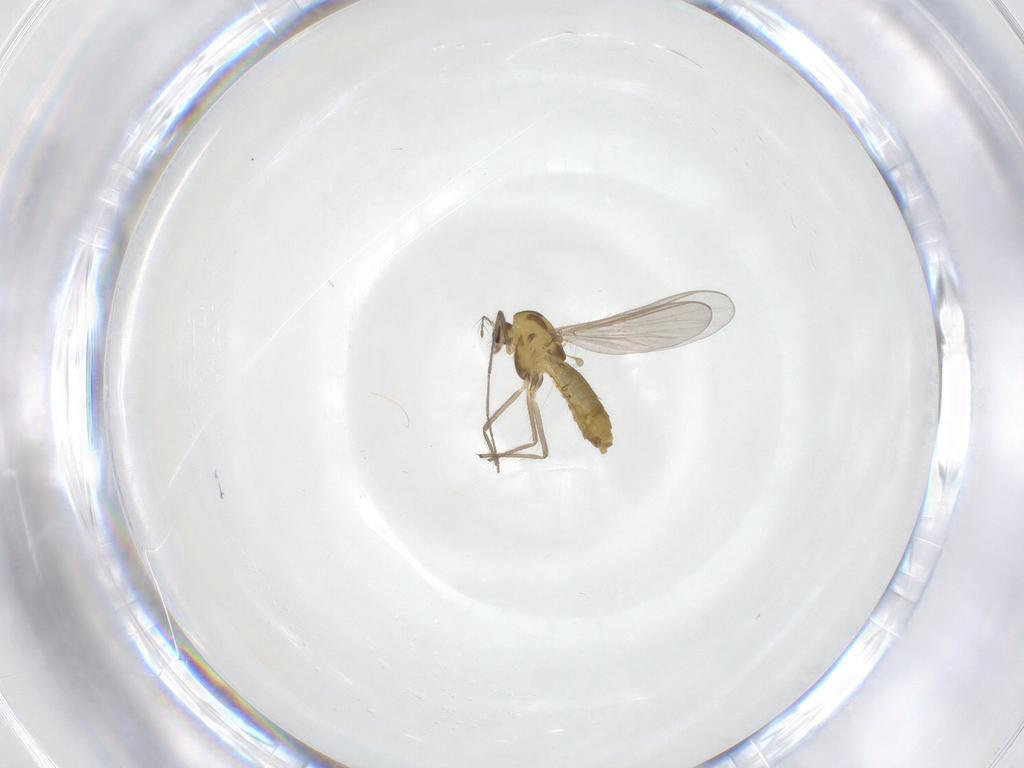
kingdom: Animalia
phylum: Arthropoda
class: Insecta
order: Diptera
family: Chironomidae
